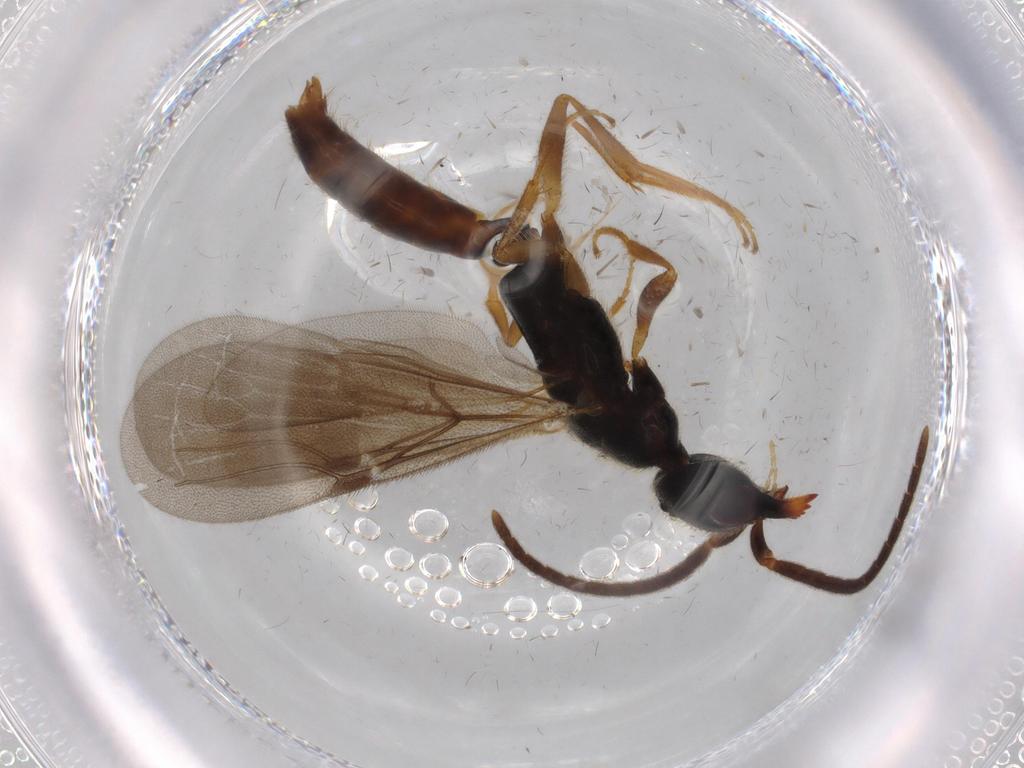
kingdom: Animalia
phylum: Arthropoda
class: Insecta
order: Hymenoptera
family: Bethylidae
